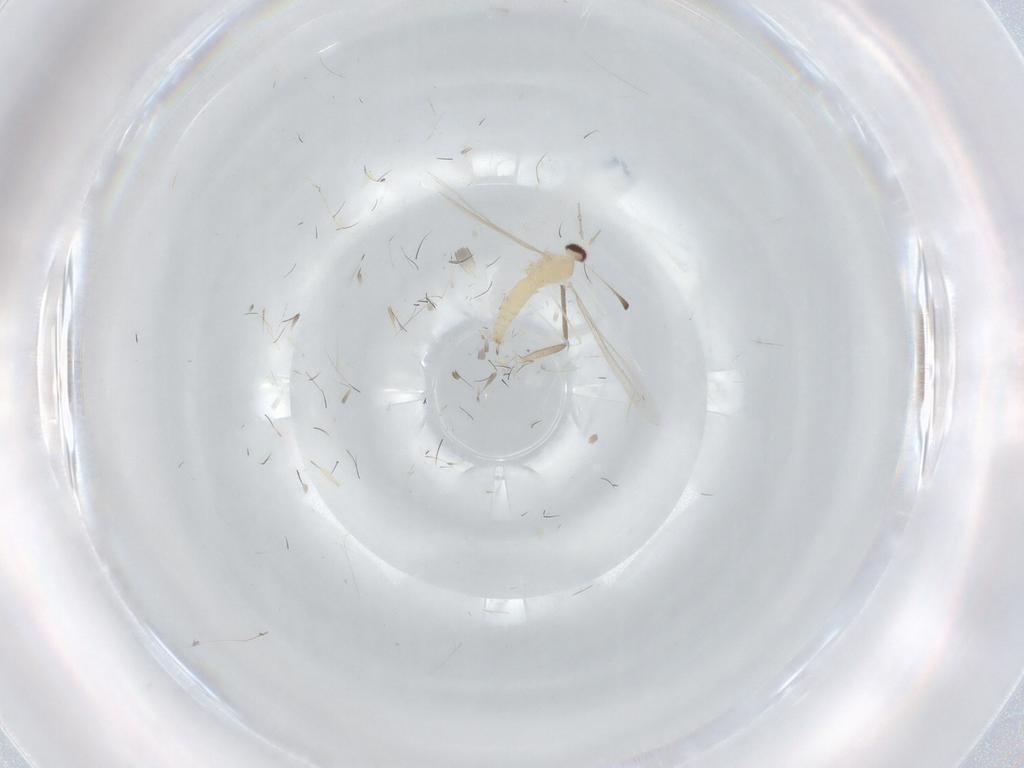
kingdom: Animalia
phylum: Arthropoda
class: Insecta
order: Diptera
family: Cecidomyiidae
